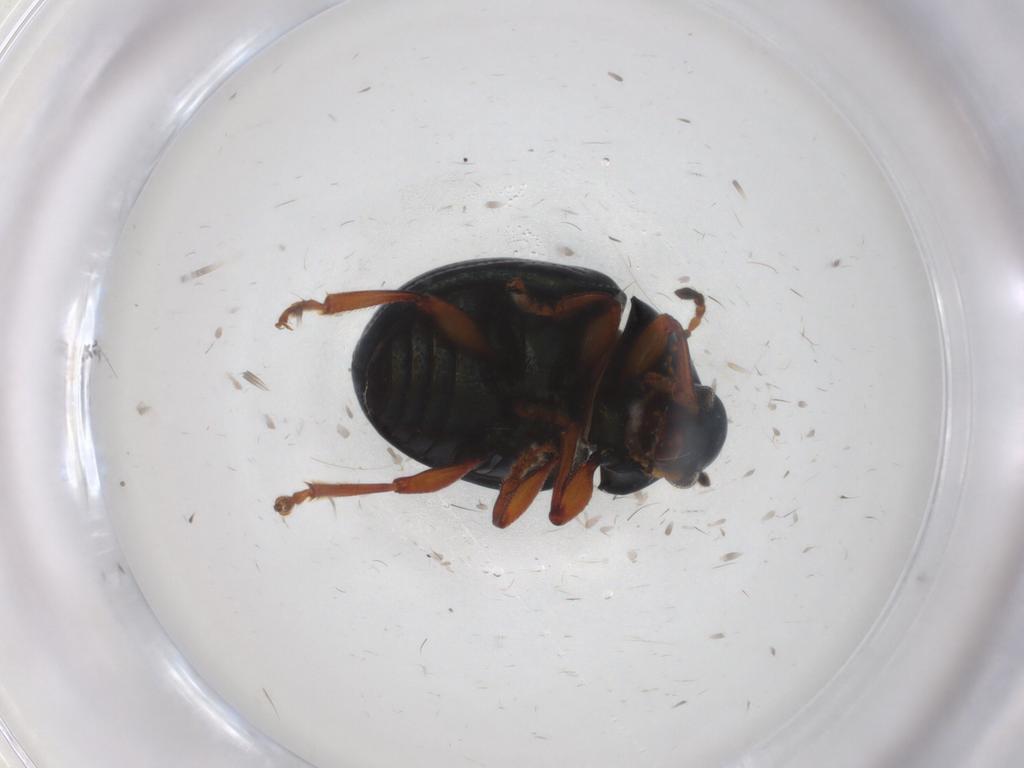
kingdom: Animalia
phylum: Arthropoda
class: Insecta
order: Coleoptera
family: Chrysomelidae
